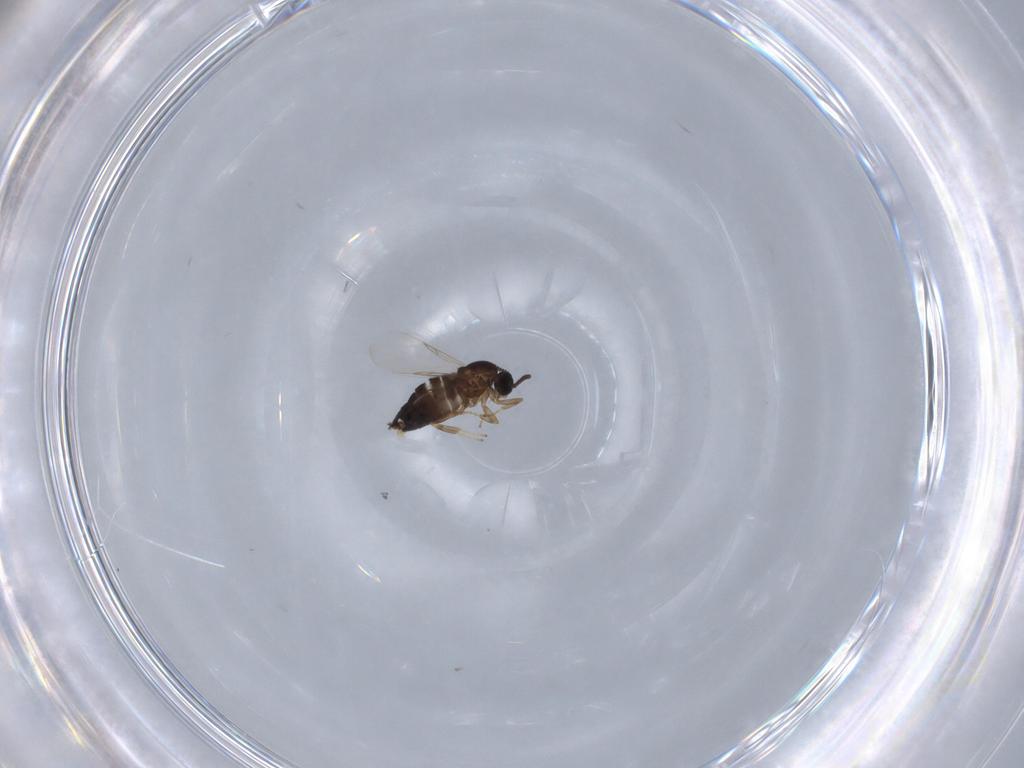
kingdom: Animalia
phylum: Arthropoda
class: Insecta
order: Diptera
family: Scatopsidae
